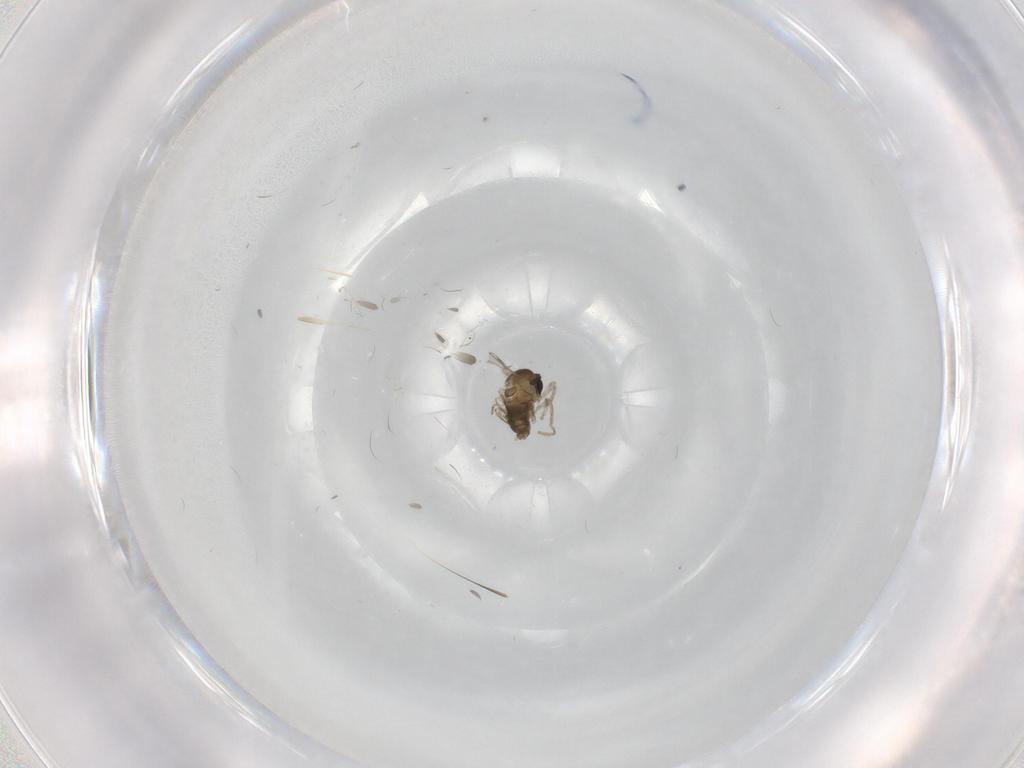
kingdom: Animalia
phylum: Arthropoda
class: Insecta
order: Diptera
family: Cecidomyiidae
